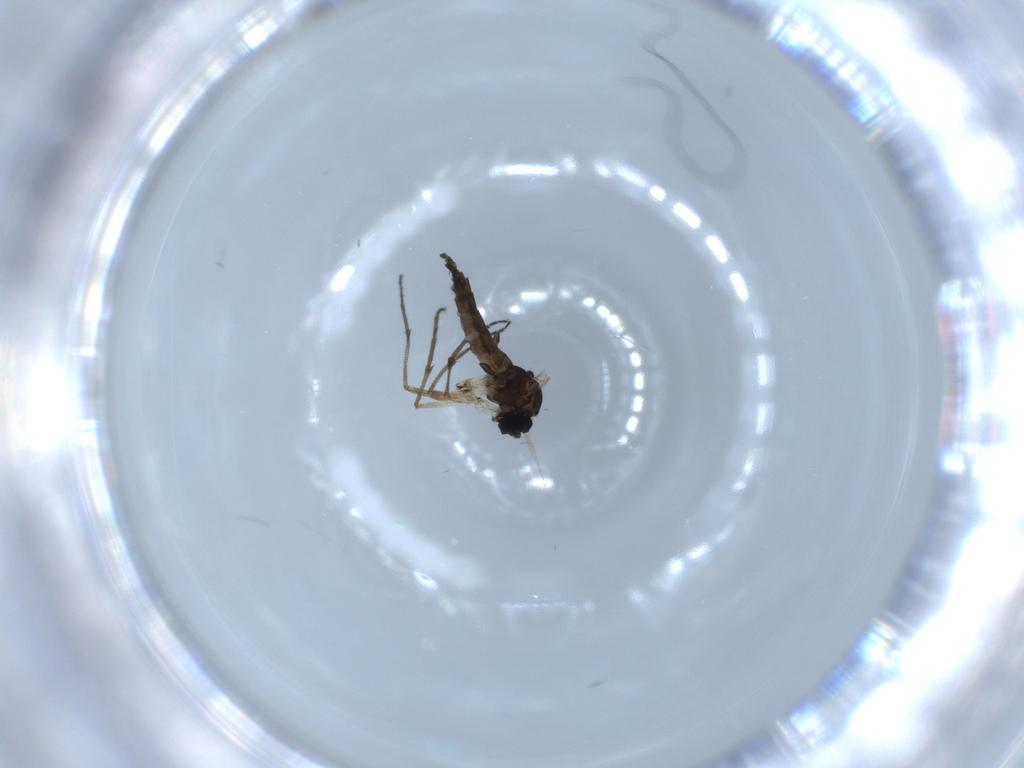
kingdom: Animalia
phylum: Arthropoda
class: Insecta
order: Diptera
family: Sciaridae
